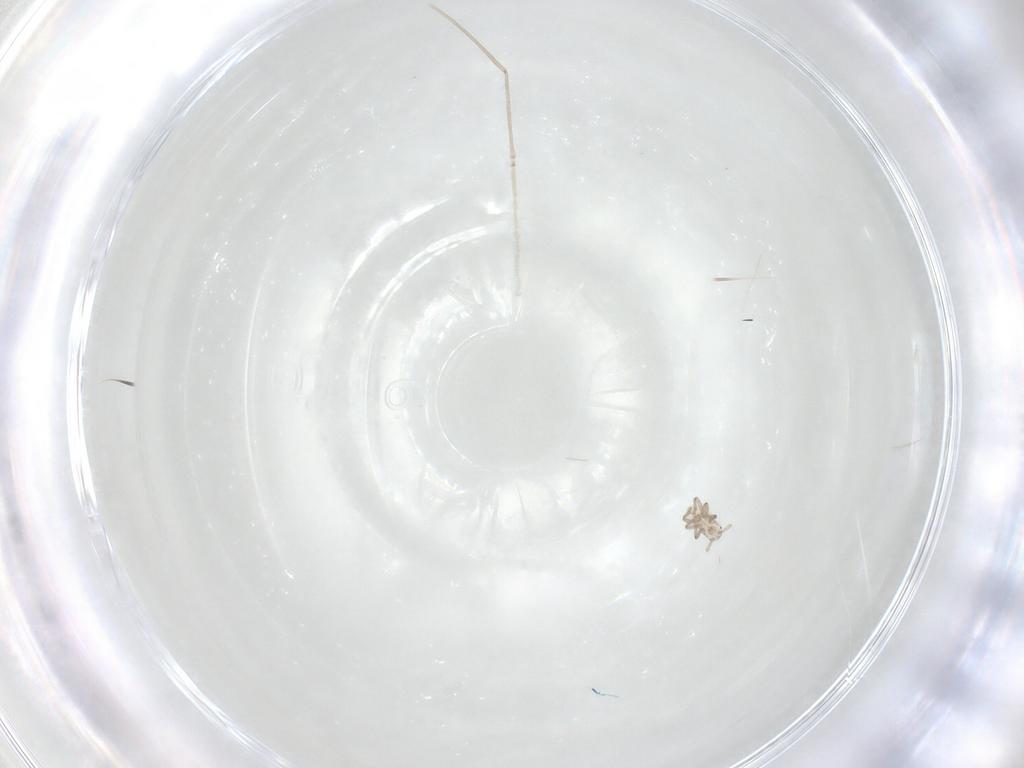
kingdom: Animalia
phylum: Arthropoda
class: Insecta
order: Diptera
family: Cecidomyiidae
